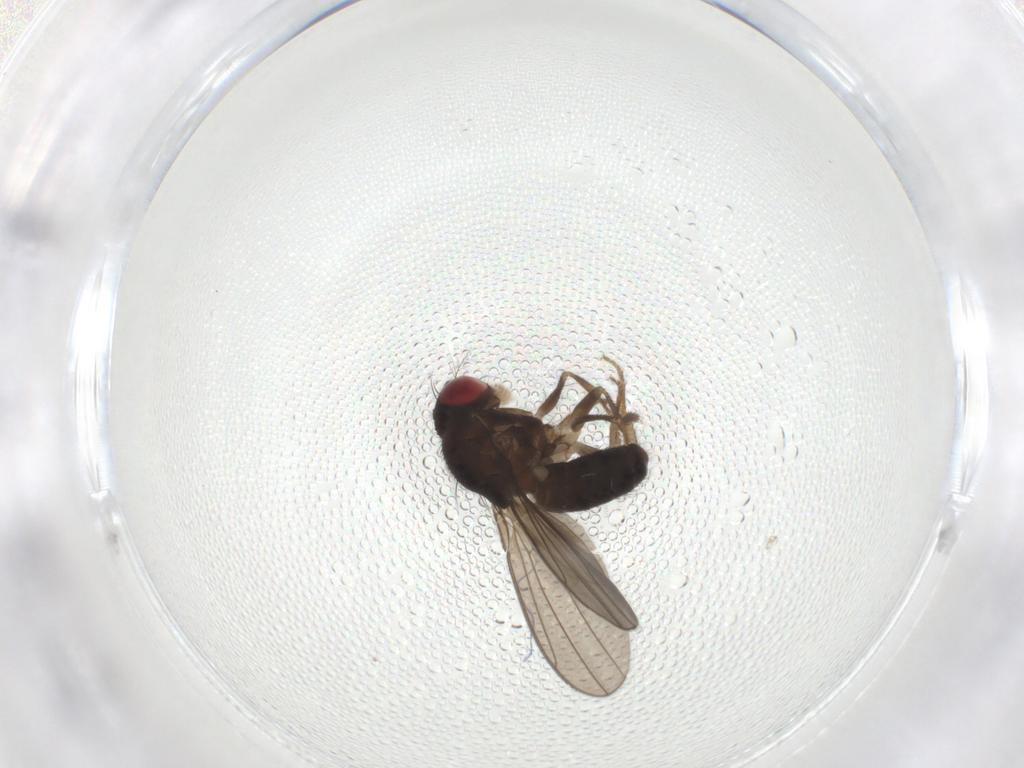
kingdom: Animalia
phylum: Arthropoda
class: Insecta
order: Diptera
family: Drosophilidae
